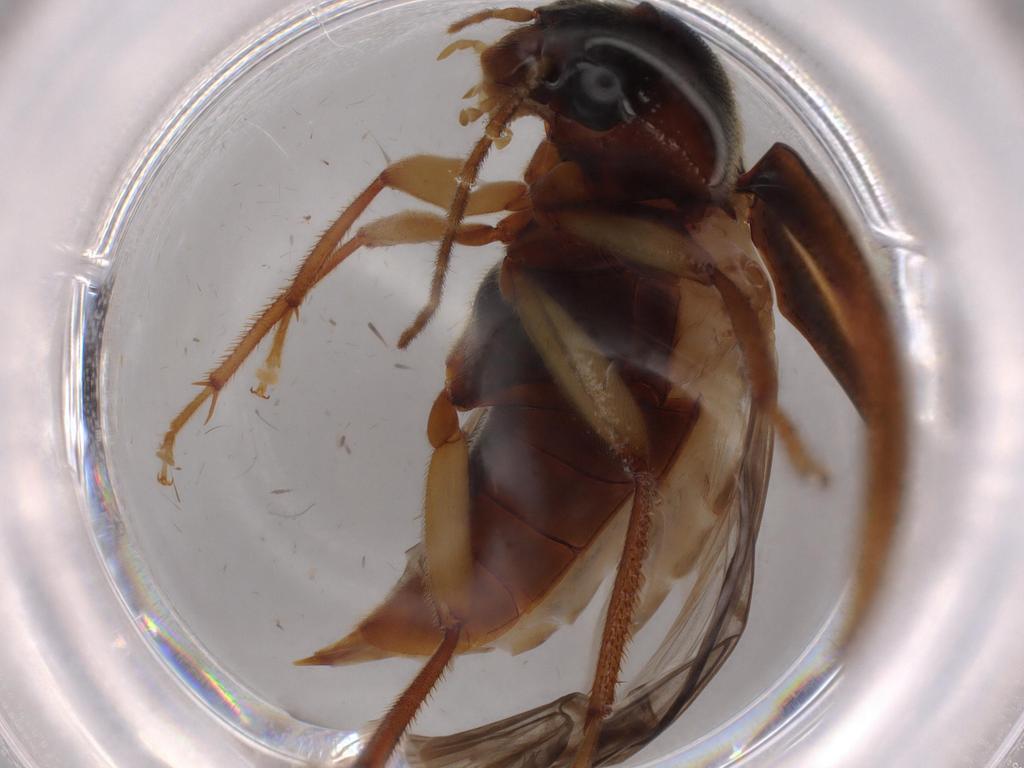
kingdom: Animalia
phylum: Arthropoda
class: Insecta
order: Coleoptera
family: Ptilodactylidae
